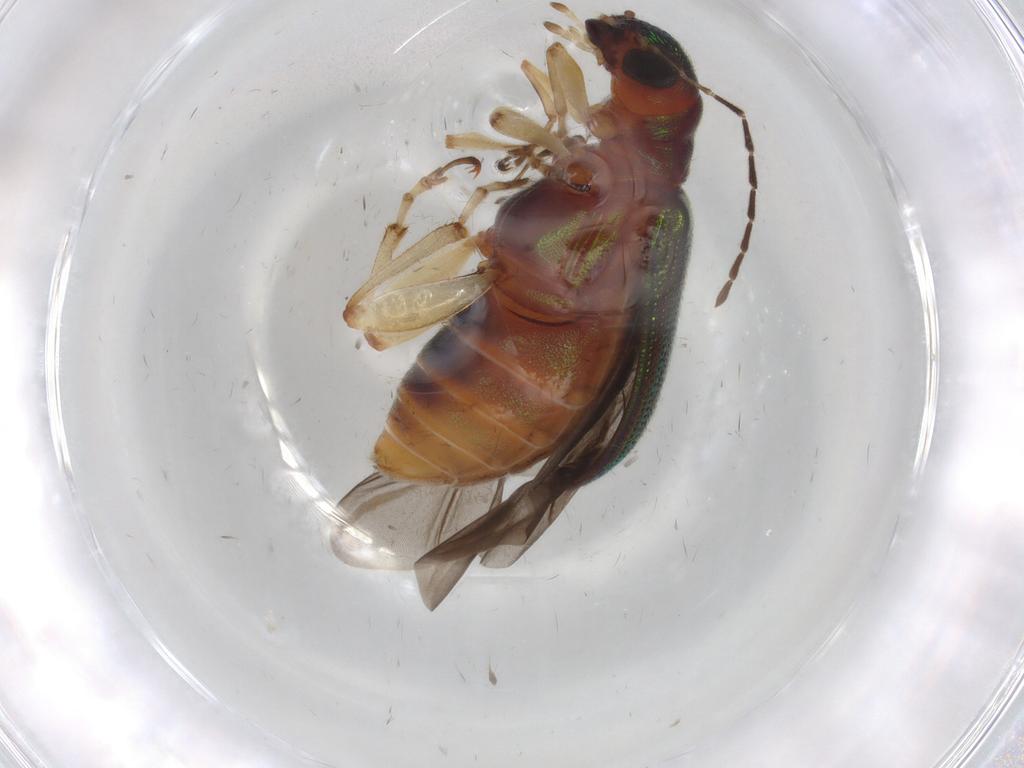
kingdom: Animalia
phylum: Arthropoda
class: Insecta
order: Coleoptera
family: Chrysomelidae
